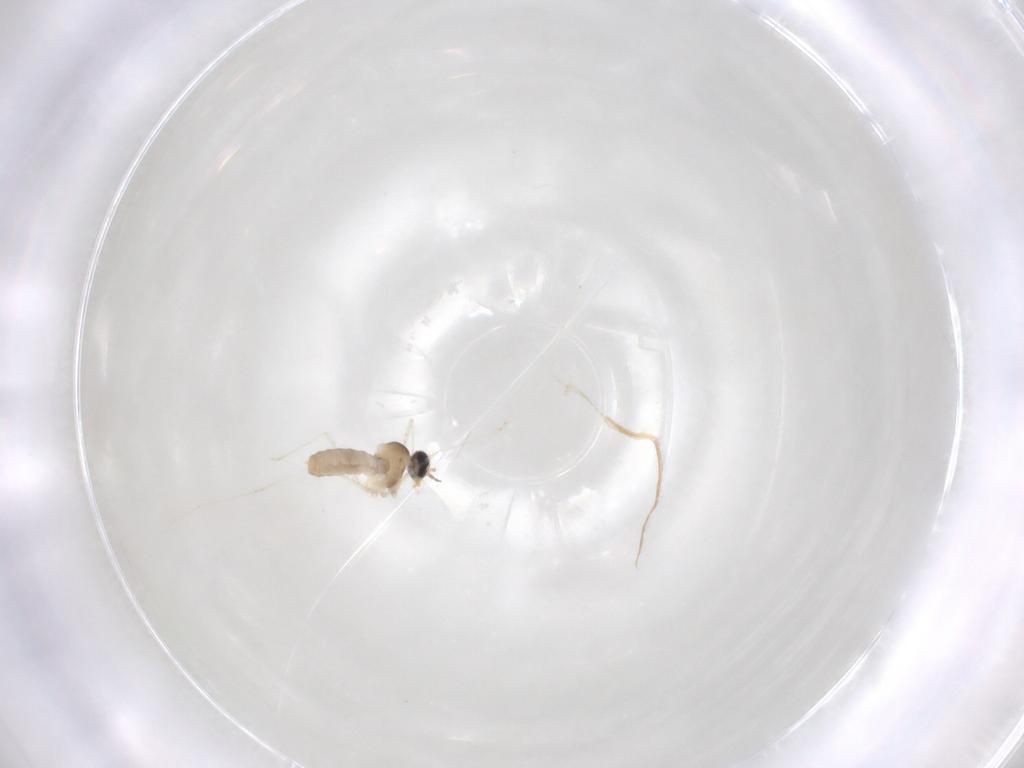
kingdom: Animalia
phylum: Arthropoda
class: Insecta
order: Diptera
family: Cecidomyiidae
